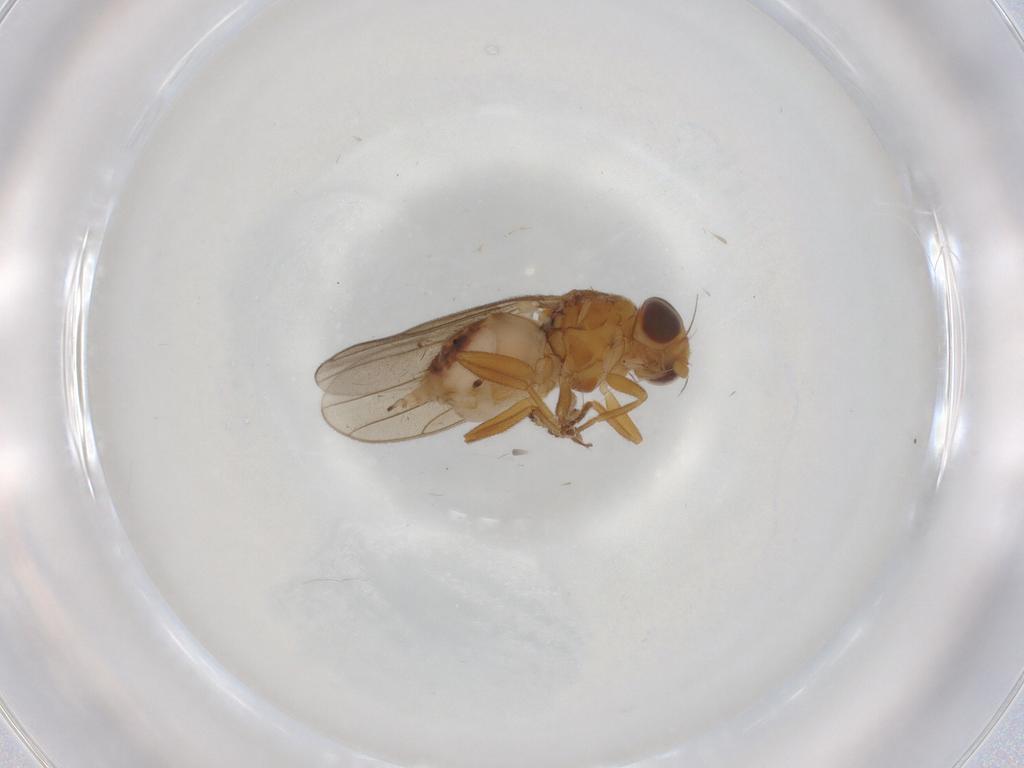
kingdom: Animalia
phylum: Arthropoda
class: Insecta
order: Diptera
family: Chloropidae
